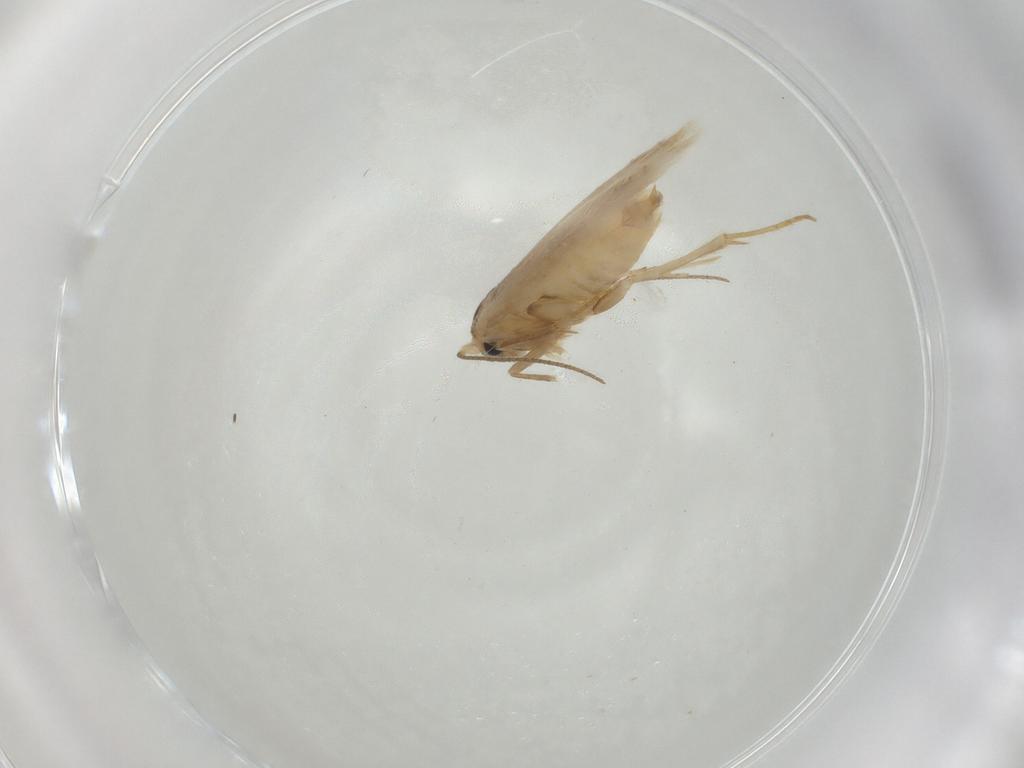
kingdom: Animalia
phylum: Arthropoda
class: Insecta
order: Lepidoptera
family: Bucculatricidae
